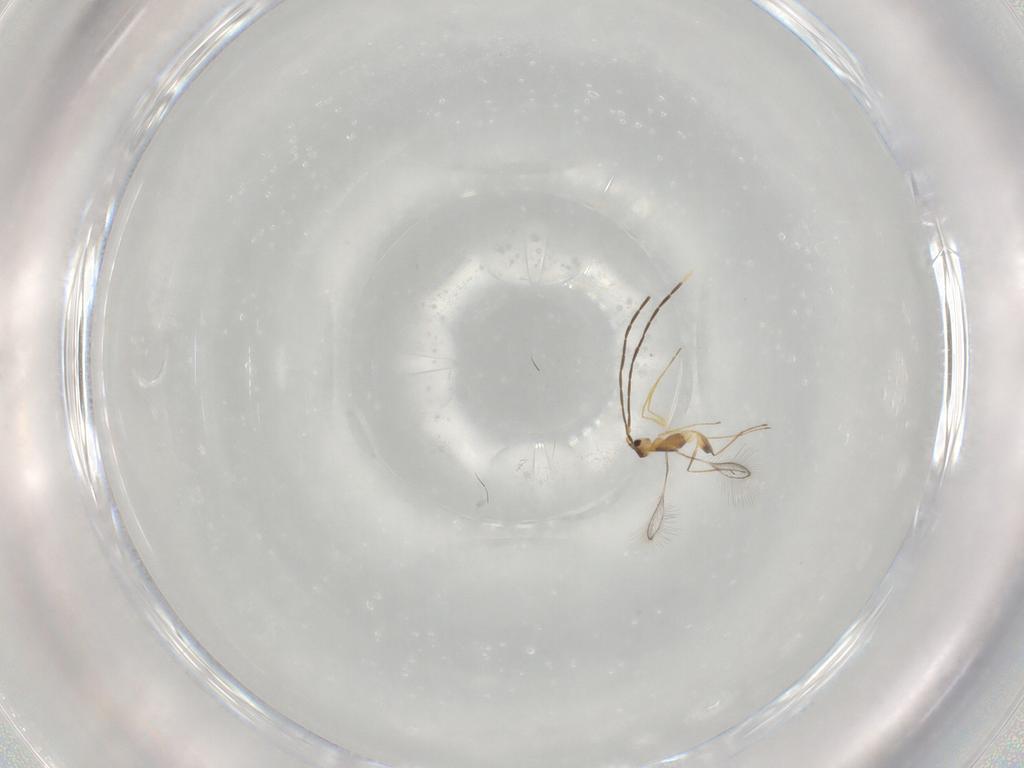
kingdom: Animalia
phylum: Arthropoda
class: Insecta
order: Hymenoptera
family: Mymaridae
